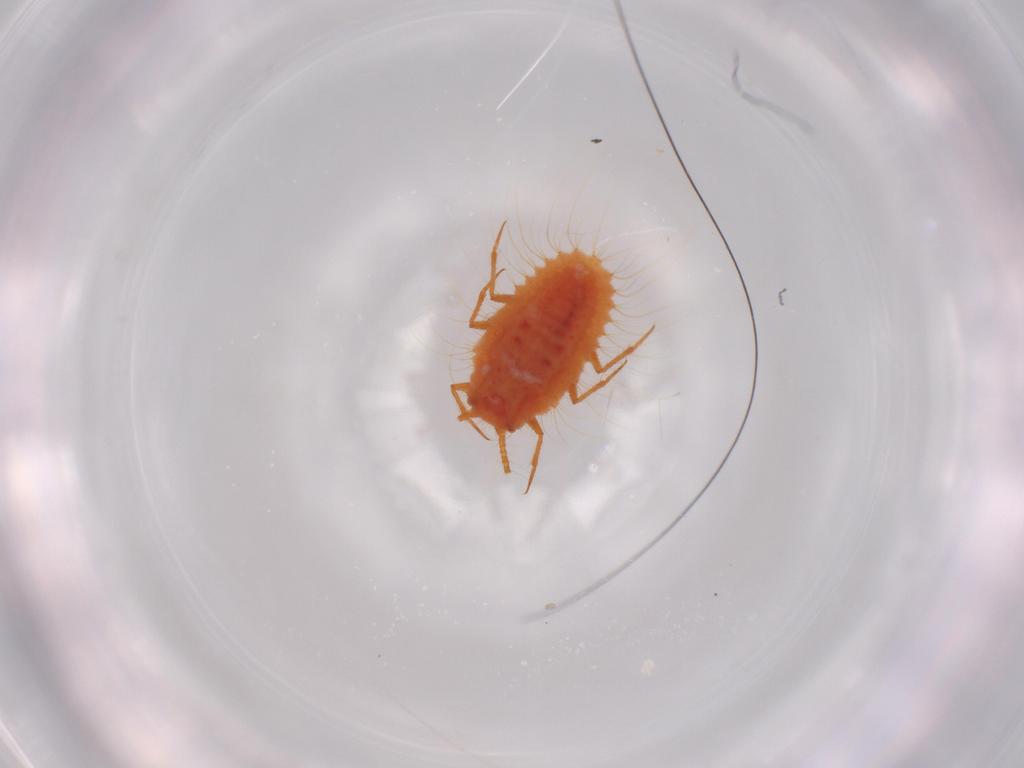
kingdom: Animalia
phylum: Arthropoda
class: Insecta
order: Hemiptera
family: Coccoidea_incertae_sedis
